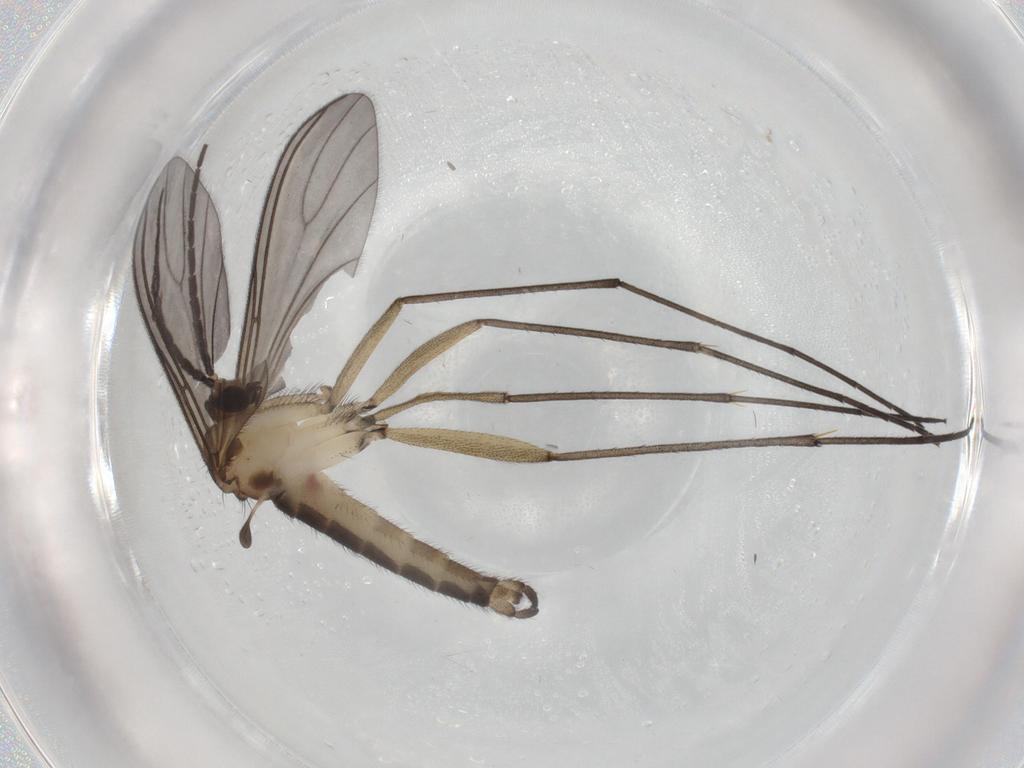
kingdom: Animalia
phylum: Arthropoda
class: Insecta
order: Diptera
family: Sciaridae
